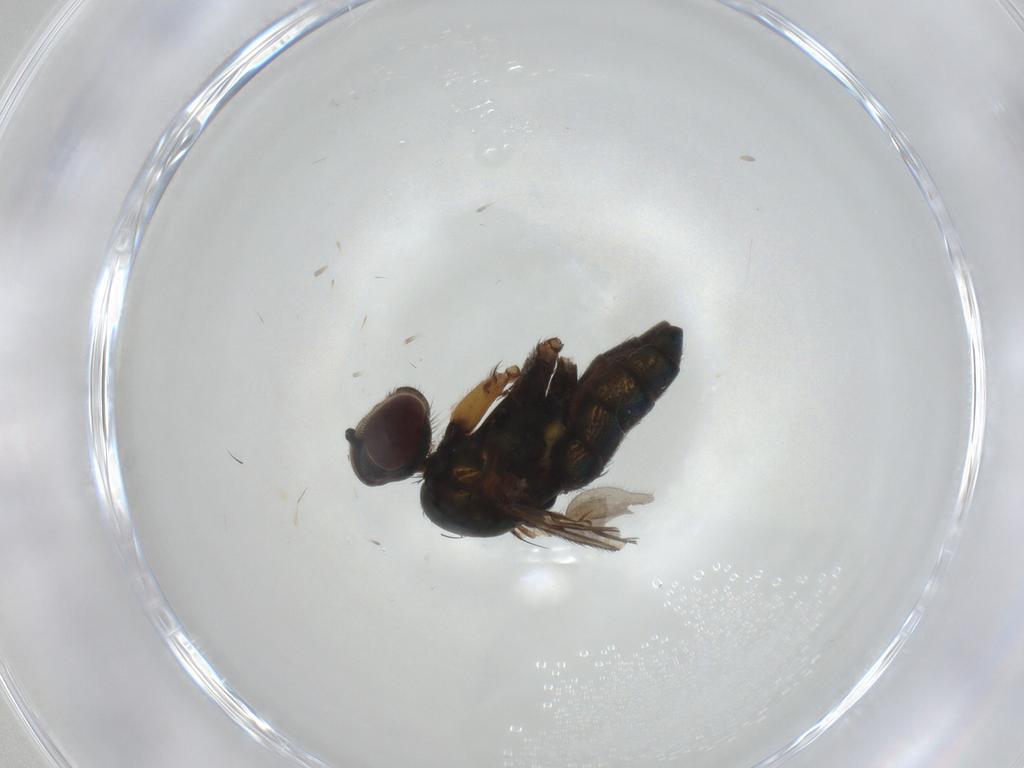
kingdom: Animalia
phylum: Arthropoda
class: Insecta
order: Diptera
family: Dolichopodidae
